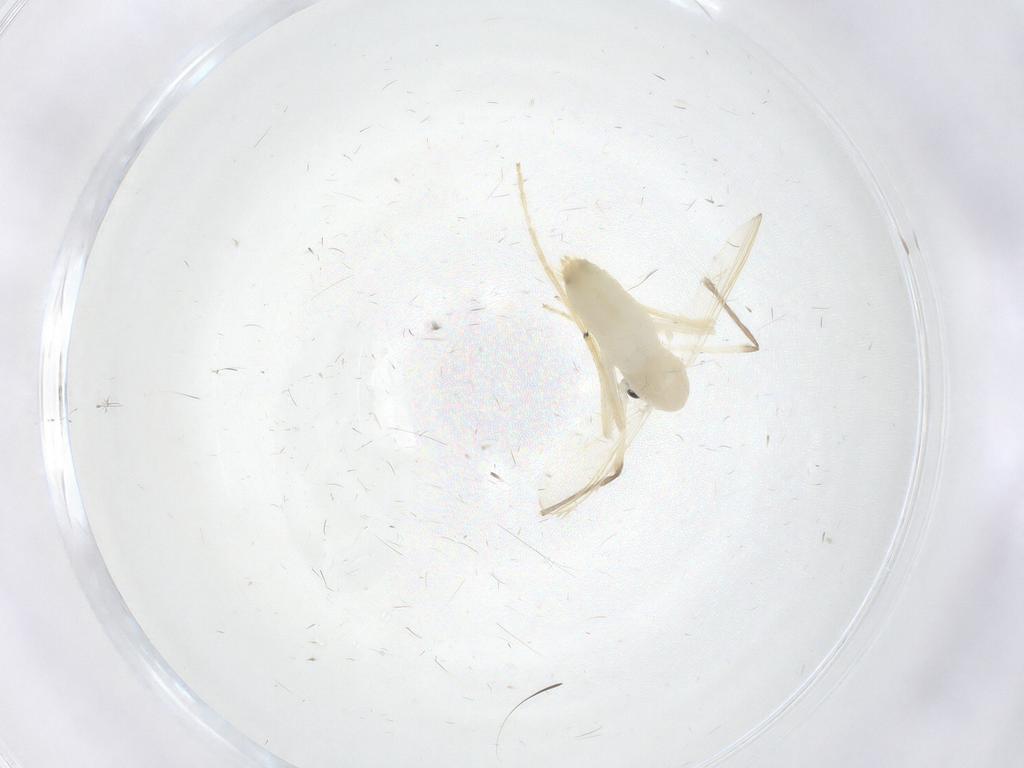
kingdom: Animalia
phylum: Arthropoda
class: Insecta
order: Diptera
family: Chironomidae
